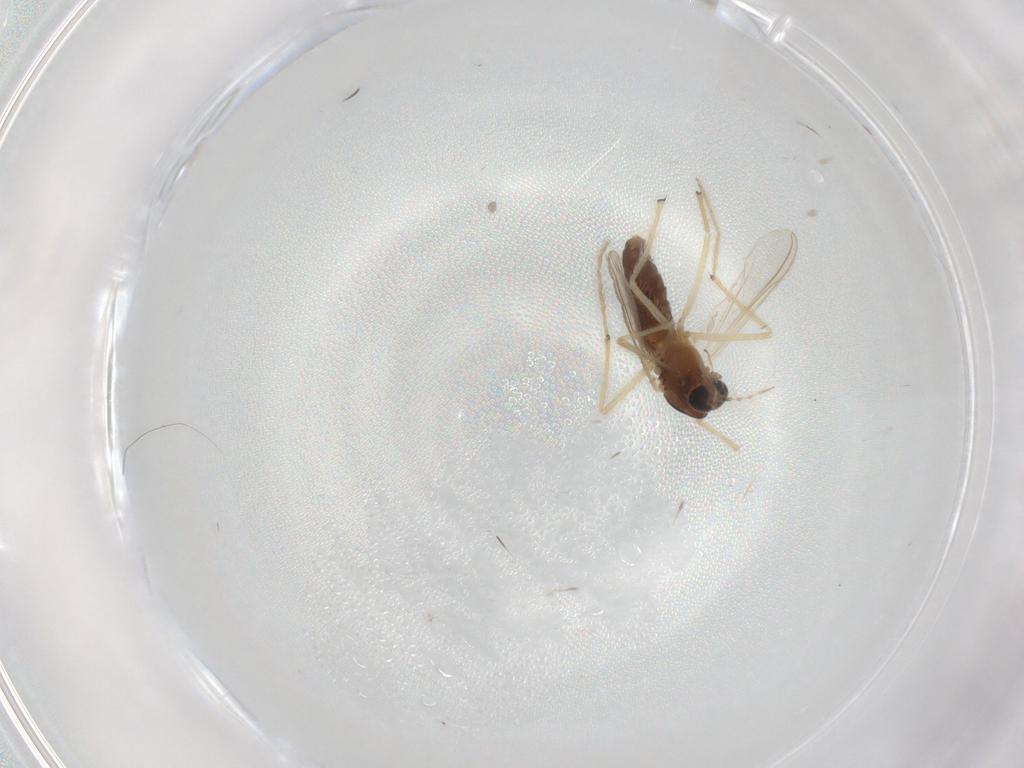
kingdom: Animalia
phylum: Arthropoda
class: Insecta
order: Diptera
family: Chironomidae
